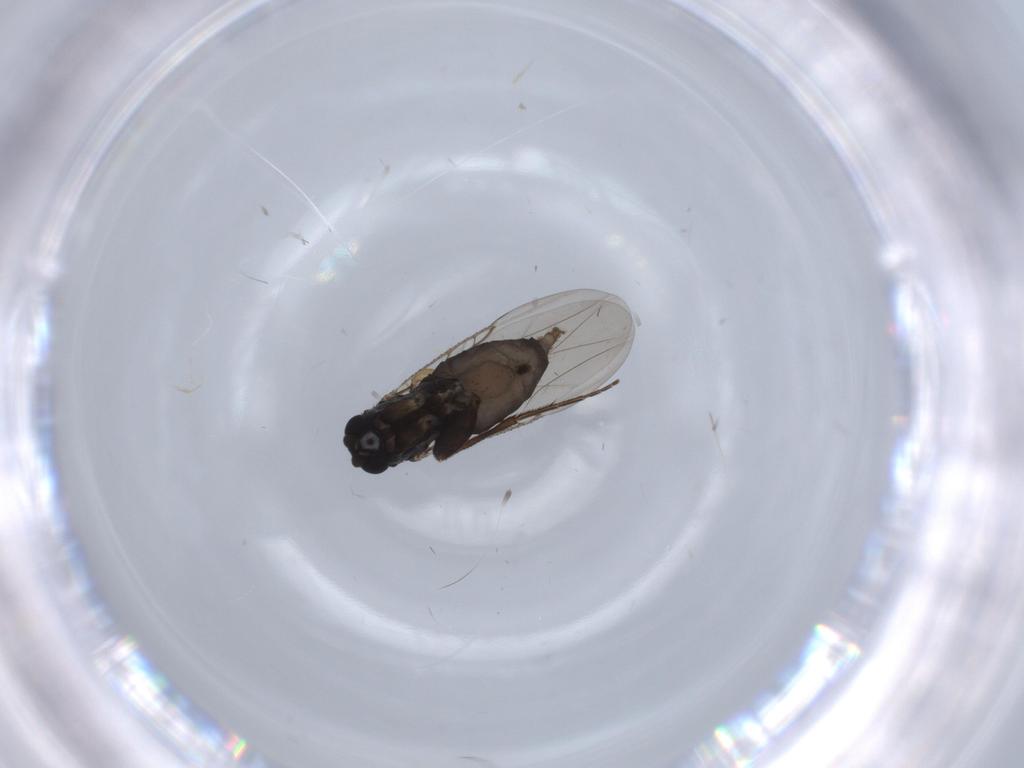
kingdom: Animalia
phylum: Arthropoda
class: Insecta
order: Diptera
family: Phoridae
